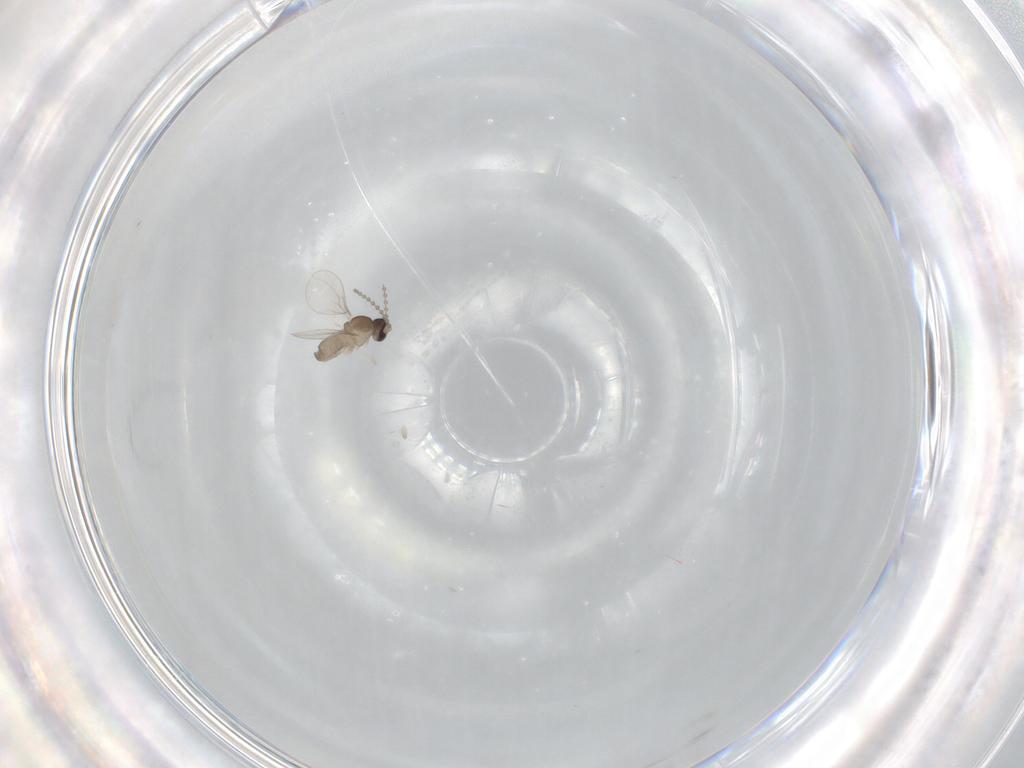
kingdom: Animalia
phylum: Arthropoda
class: Insecta
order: Diptera
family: Cecidomyiidae
